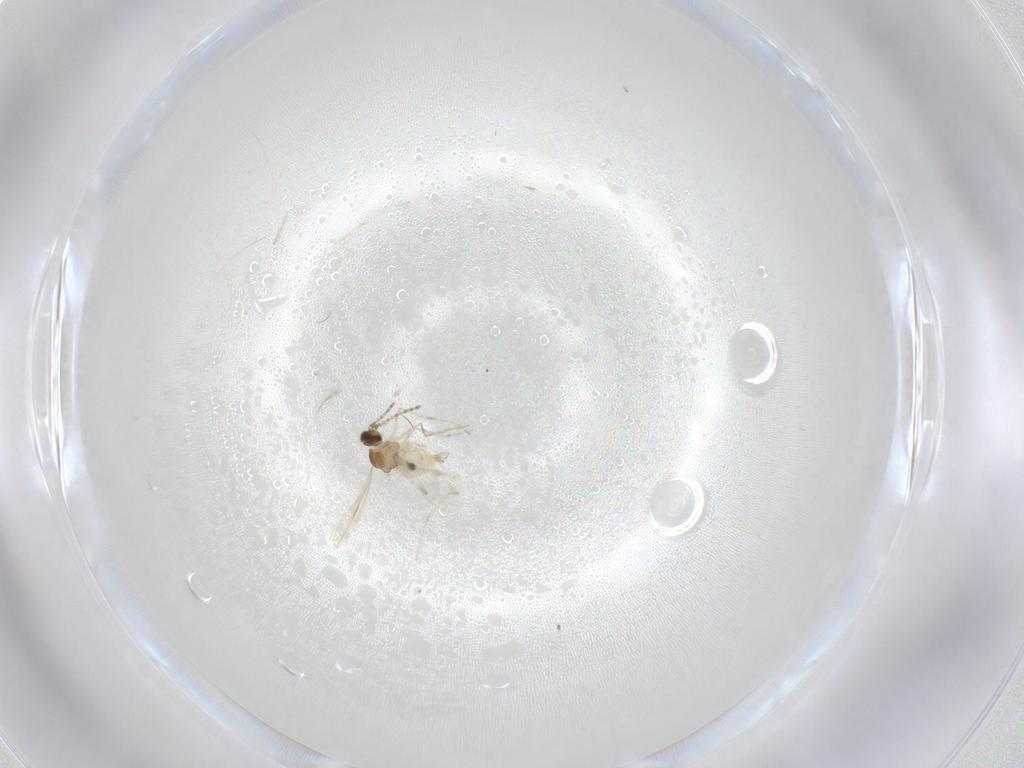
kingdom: Animalia
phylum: Arthropoda
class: Insecta
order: Diptera
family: Cecidomyiidae
